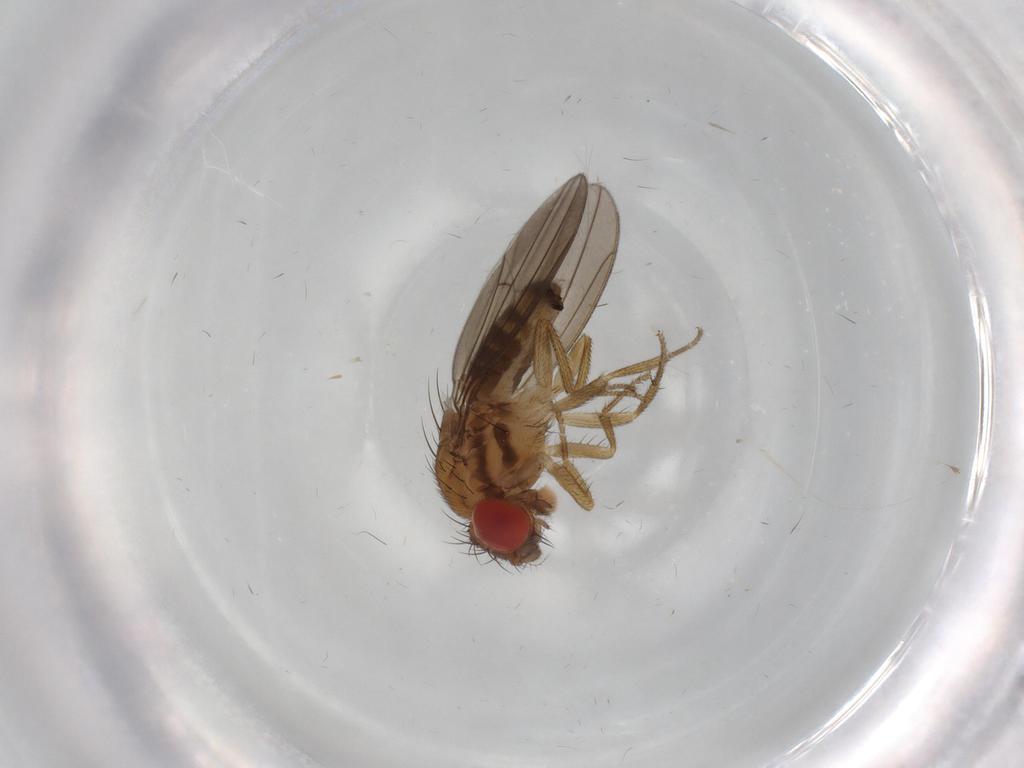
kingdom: Animalia
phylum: Arthropoda
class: Insecta
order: Diptera
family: Drosophilidae
